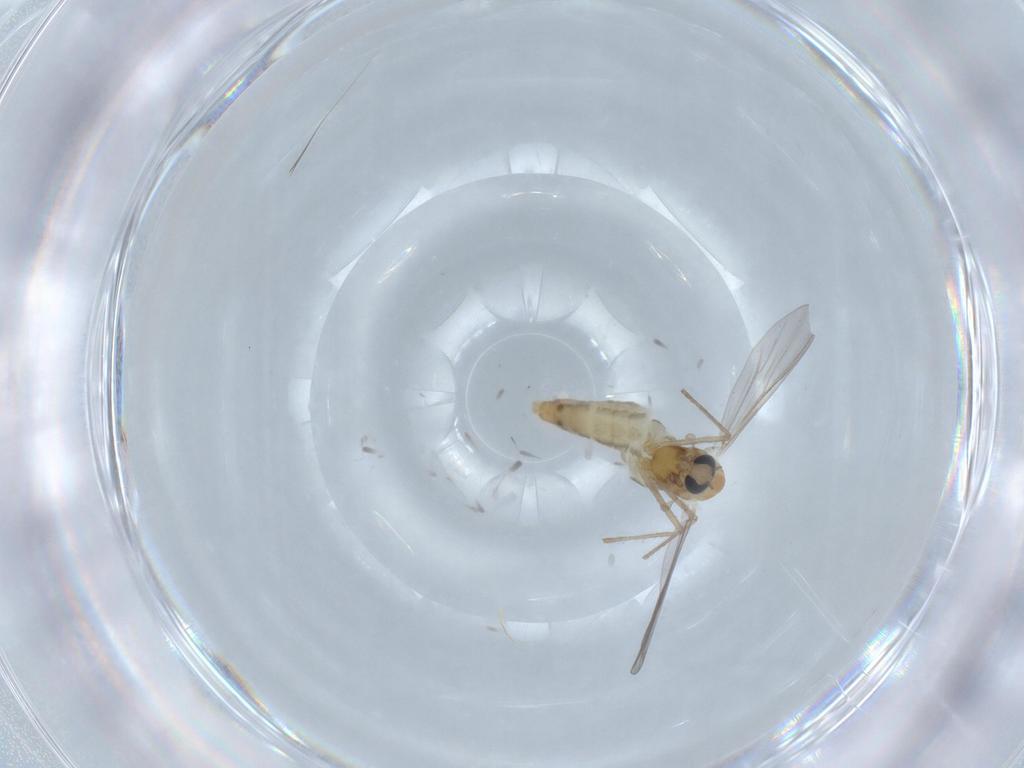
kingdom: Animalia
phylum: Arthropoda
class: Insecta
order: Diptera
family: Chironomidae
